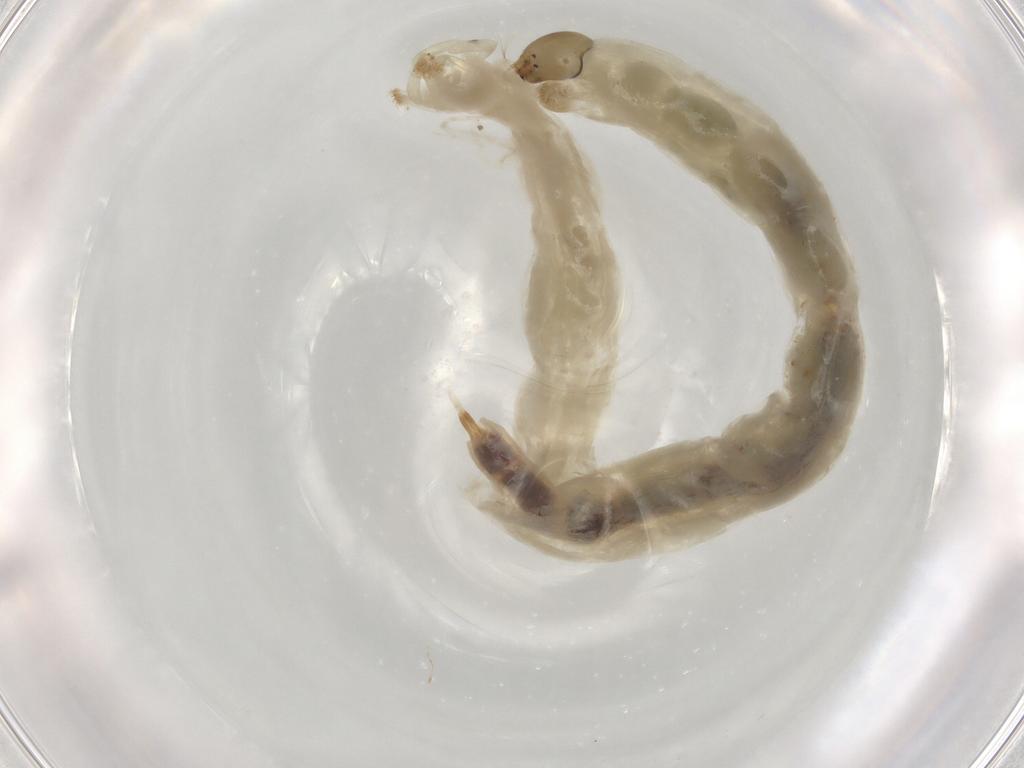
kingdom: Animalia
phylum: Arthropoda
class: Insecta
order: Diptera
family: Chironomidae
